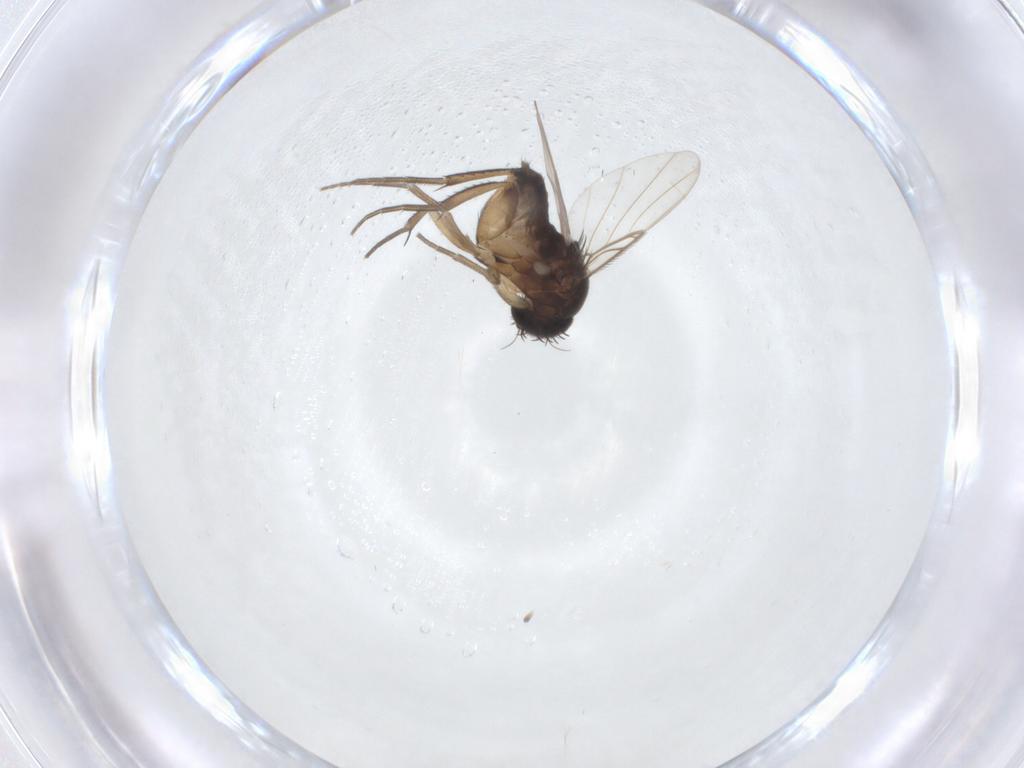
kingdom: Animalia
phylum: Arthropoda
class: Insecta
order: Diptera
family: Phoridae
